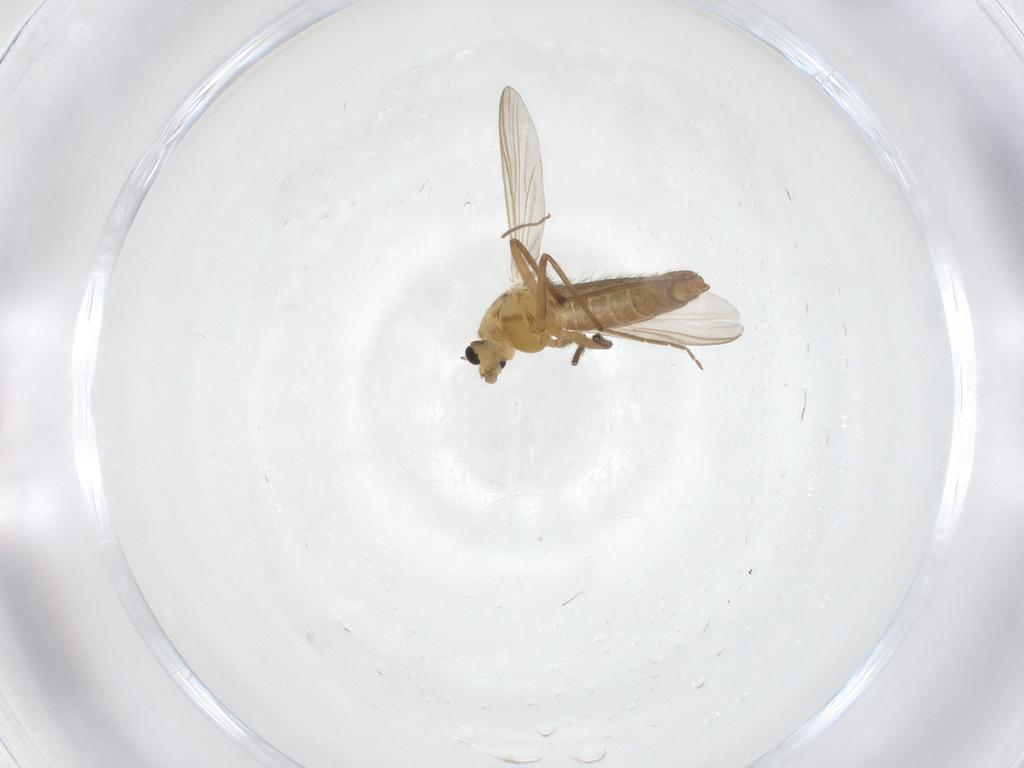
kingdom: Animalia
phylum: Arthropoda
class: Insecta
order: Diptera
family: Chironomidae
